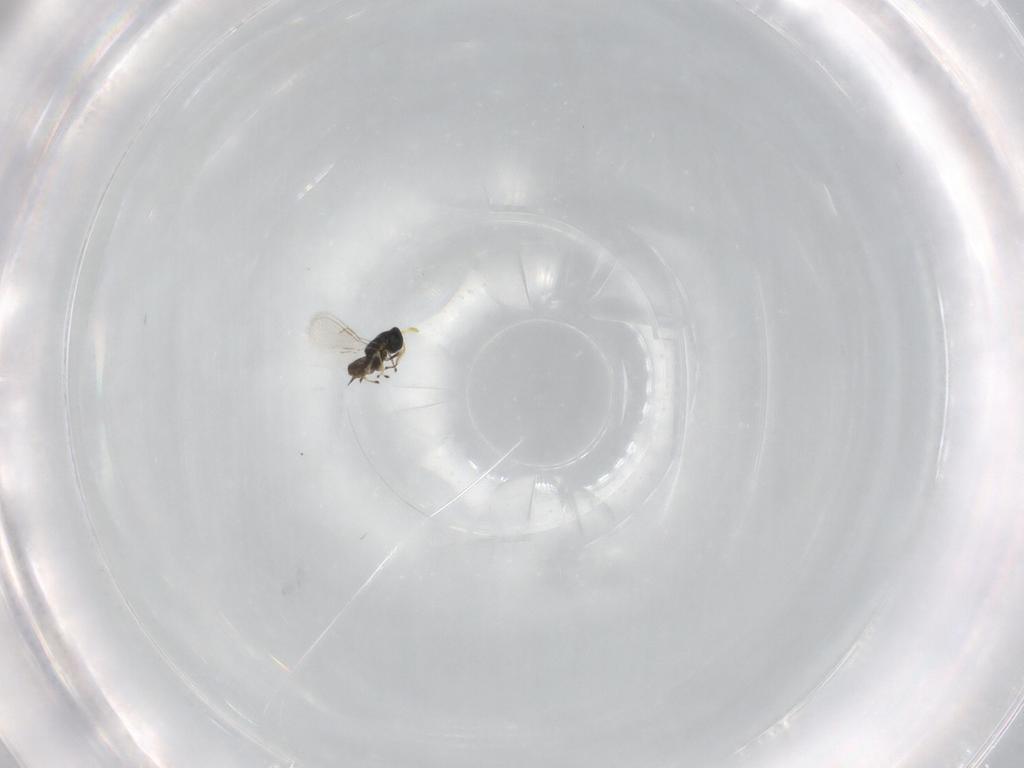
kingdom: Animalia
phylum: Arthropoda
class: Insecta
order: Hymenoptera
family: Eulophidae
